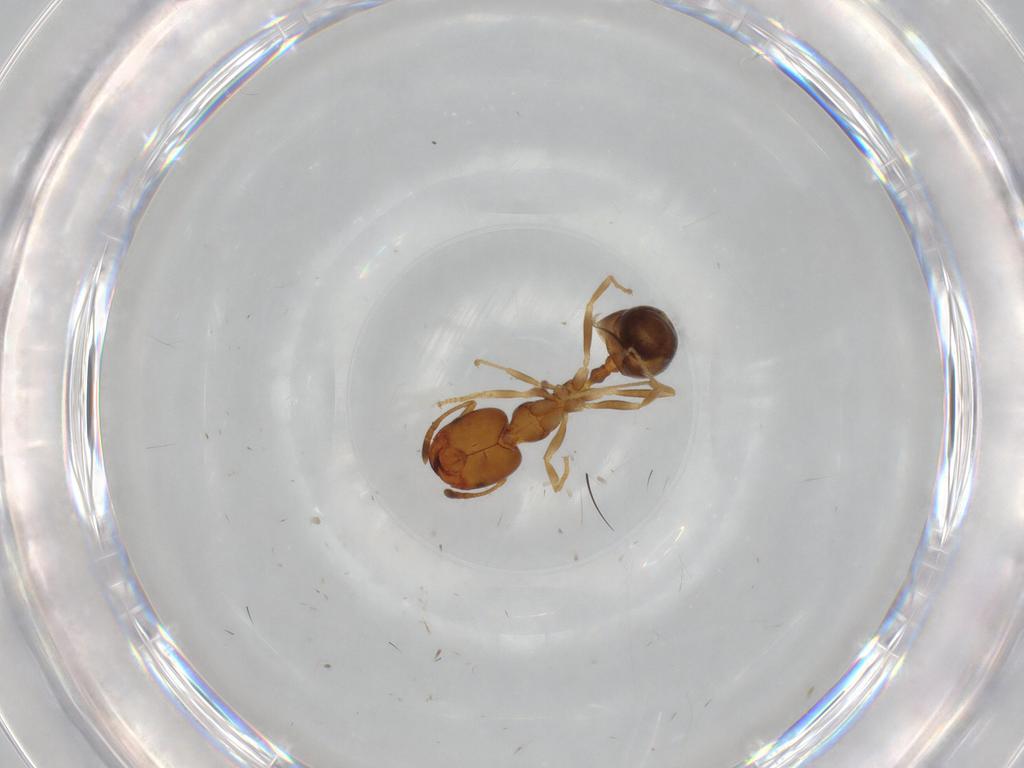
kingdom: Animalia
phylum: Arthropoda
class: Insecta
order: Hymenoptera
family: Formicidae
